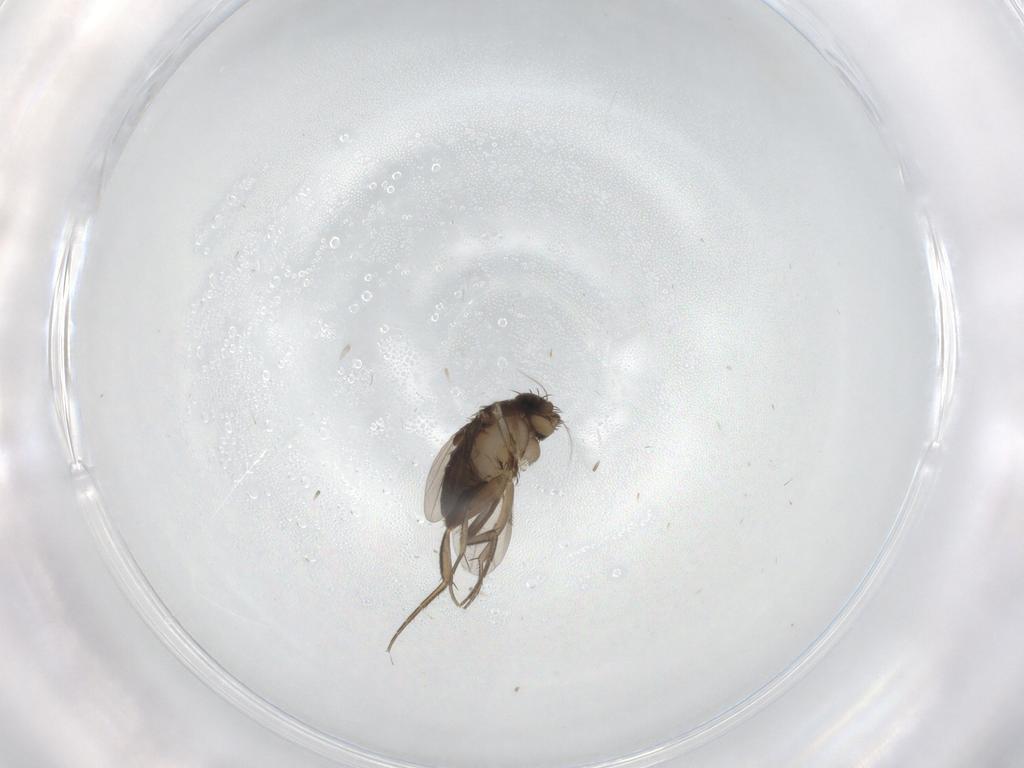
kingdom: Animalia
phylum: Arthropoda
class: Insecta
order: Diptera
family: Phoridae
